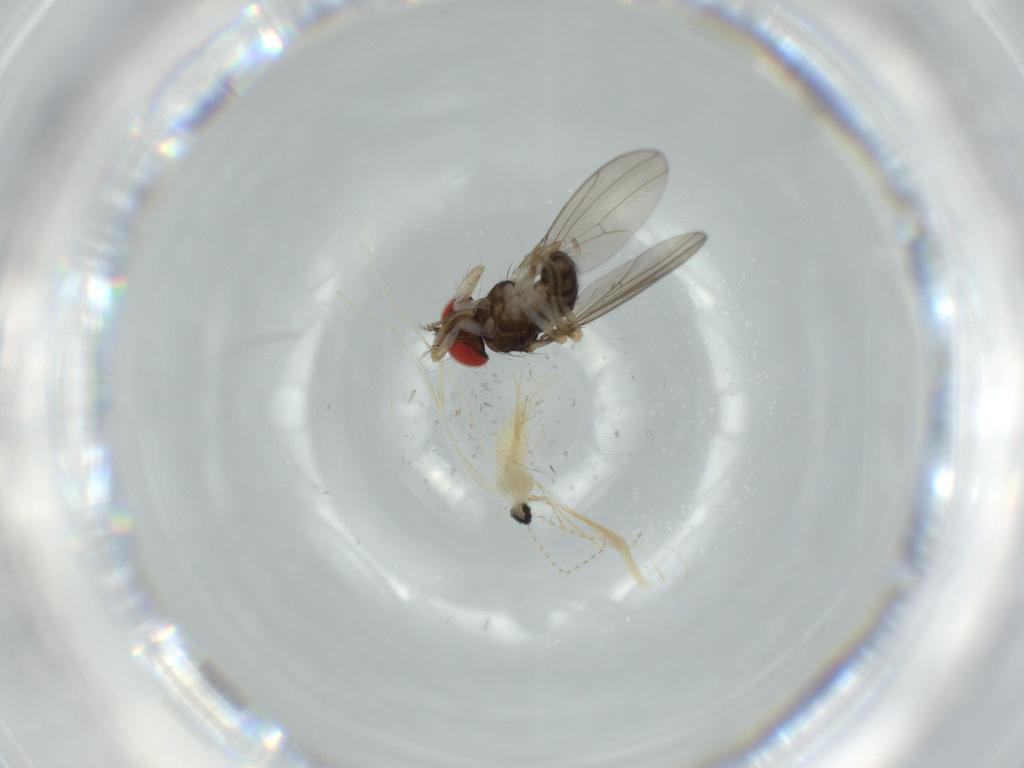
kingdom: Animalia
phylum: Arthropoda
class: Insecta
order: Diptera
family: Cecidomyiidae
